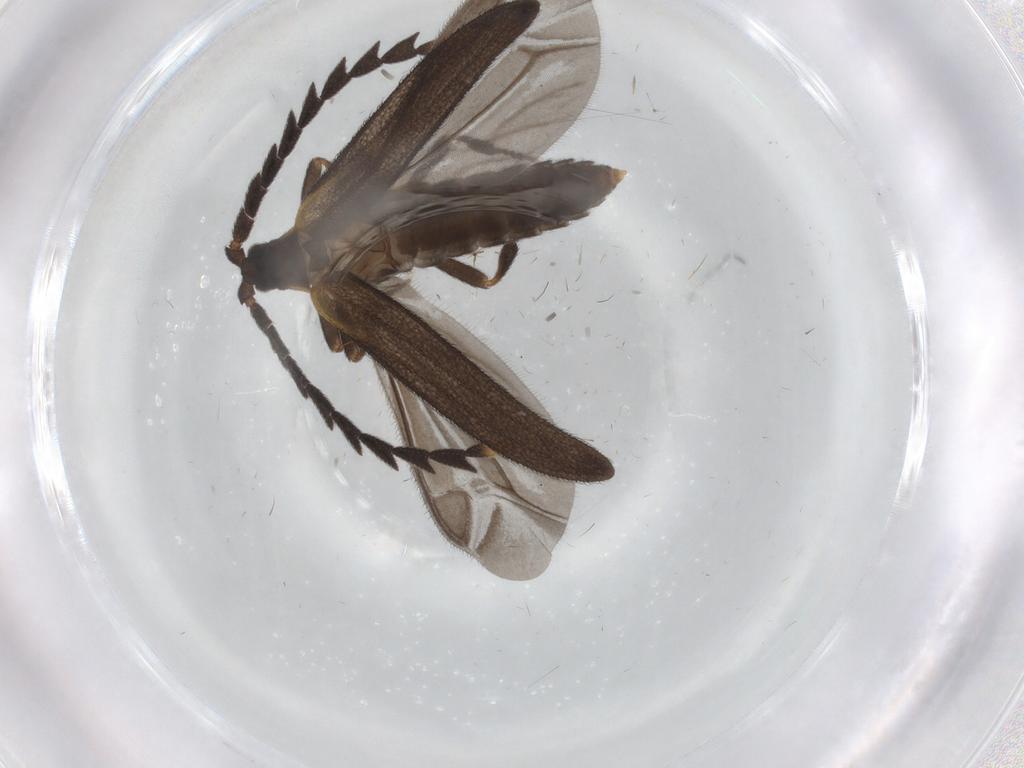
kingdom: Animalia
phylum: Arthropoda
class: Insecta
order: Coleoptera
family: Lycidae
